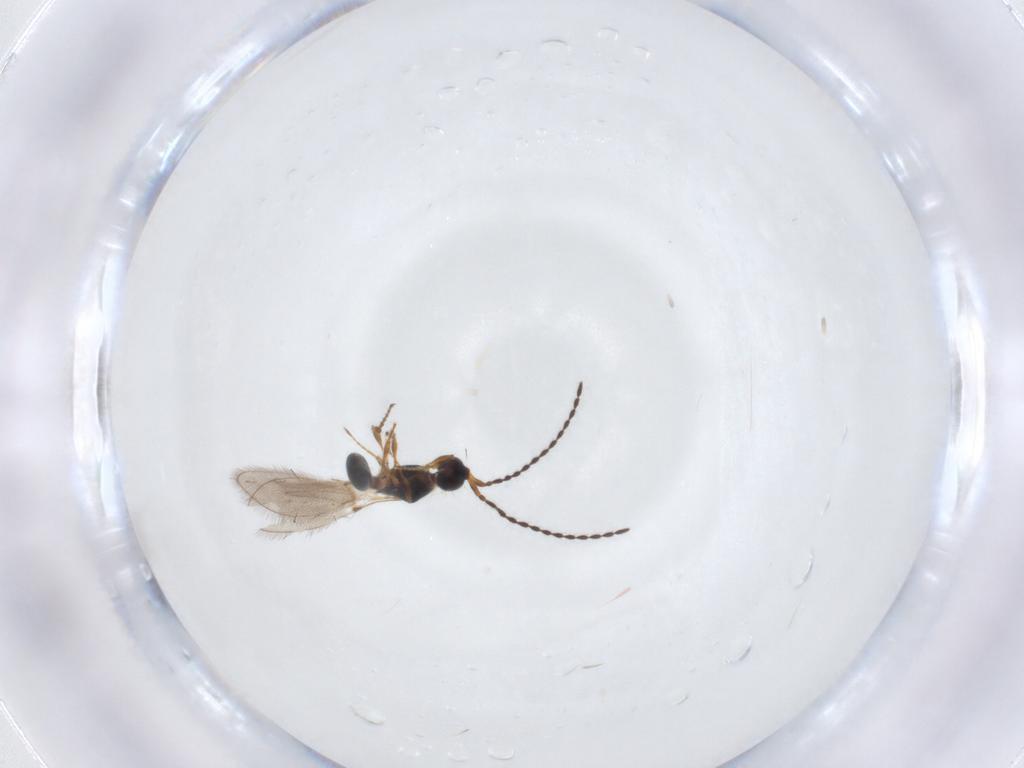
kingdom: Animalia
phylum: Arthropoda
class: Insecta
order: Hymenoptera
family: Diapriidae
